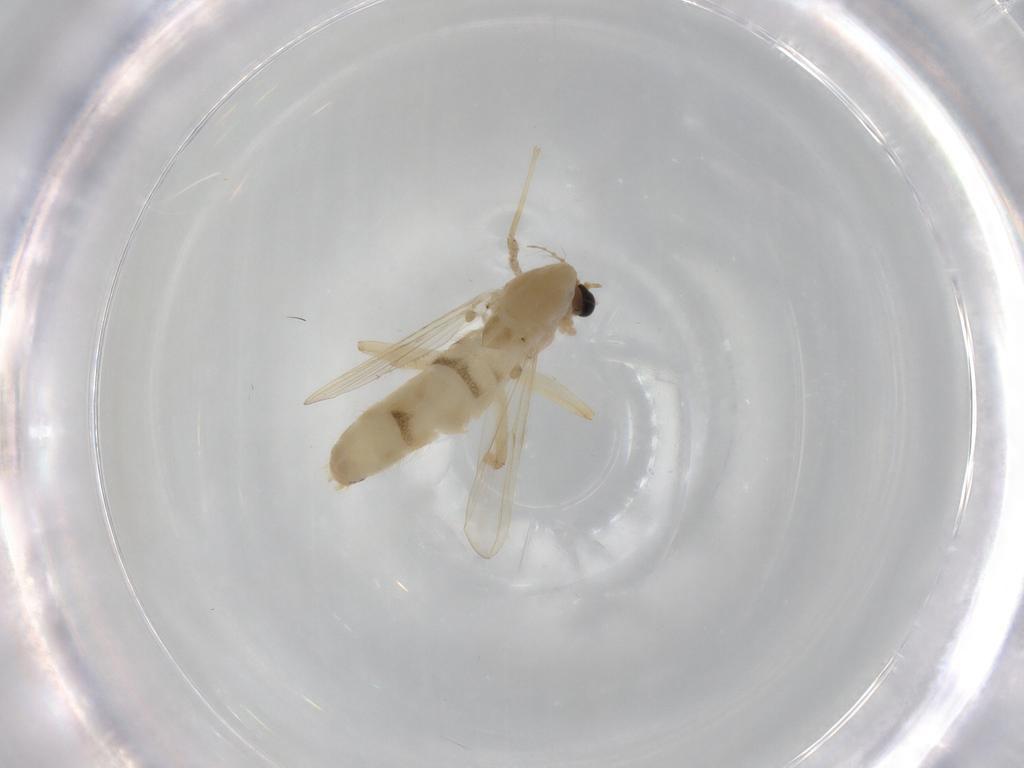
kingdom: Animalia
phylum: Arthropoda
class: Insecta
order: Diptera
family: Chironomidae
